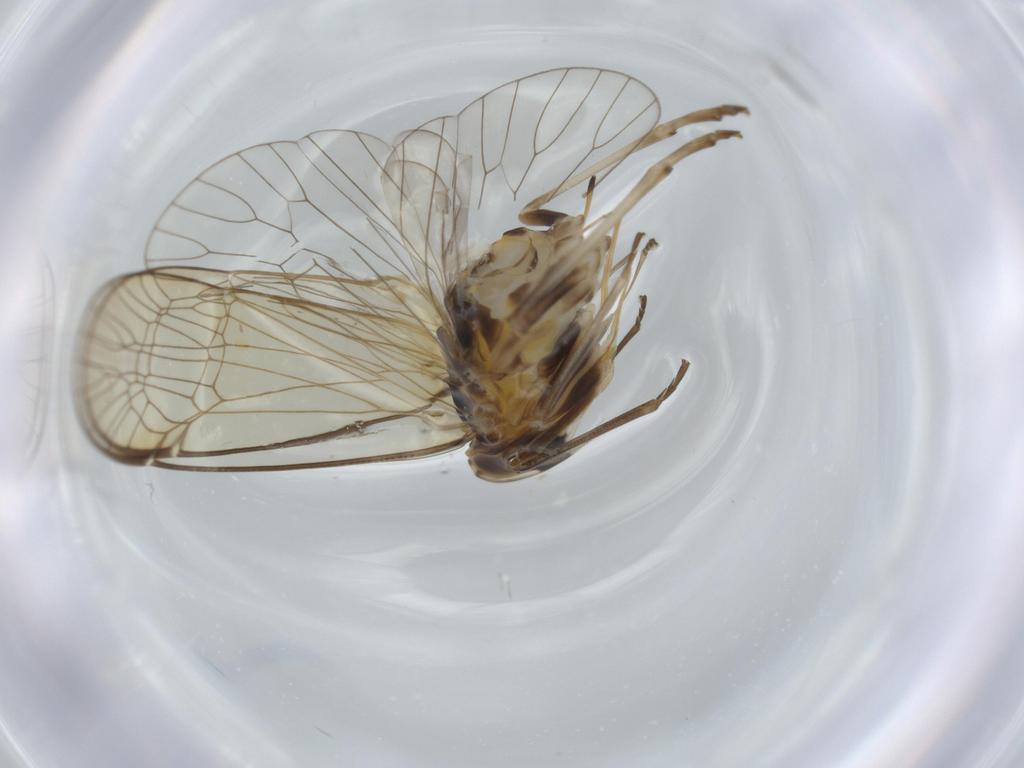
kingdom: Animalia
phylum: Arthropoda
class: Insecta
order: Hemiptera
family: Kinnaridae
